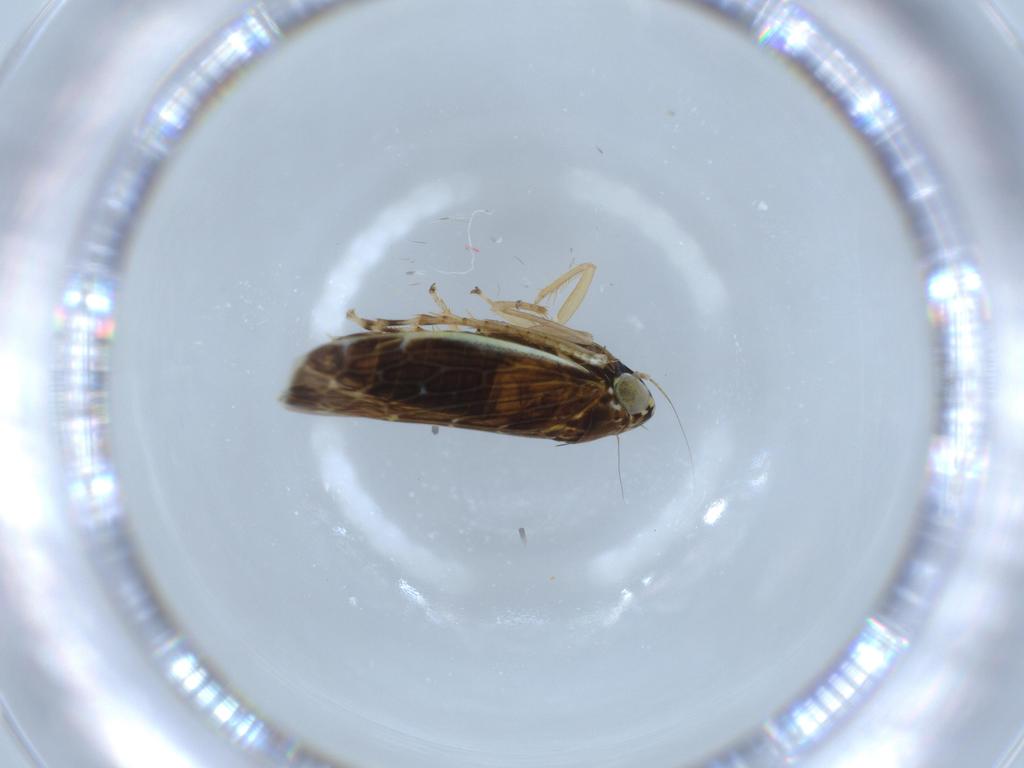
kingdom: Animalia
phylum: Arthropoda
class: Insecta
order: Hemiptera
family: Cicadellidae
